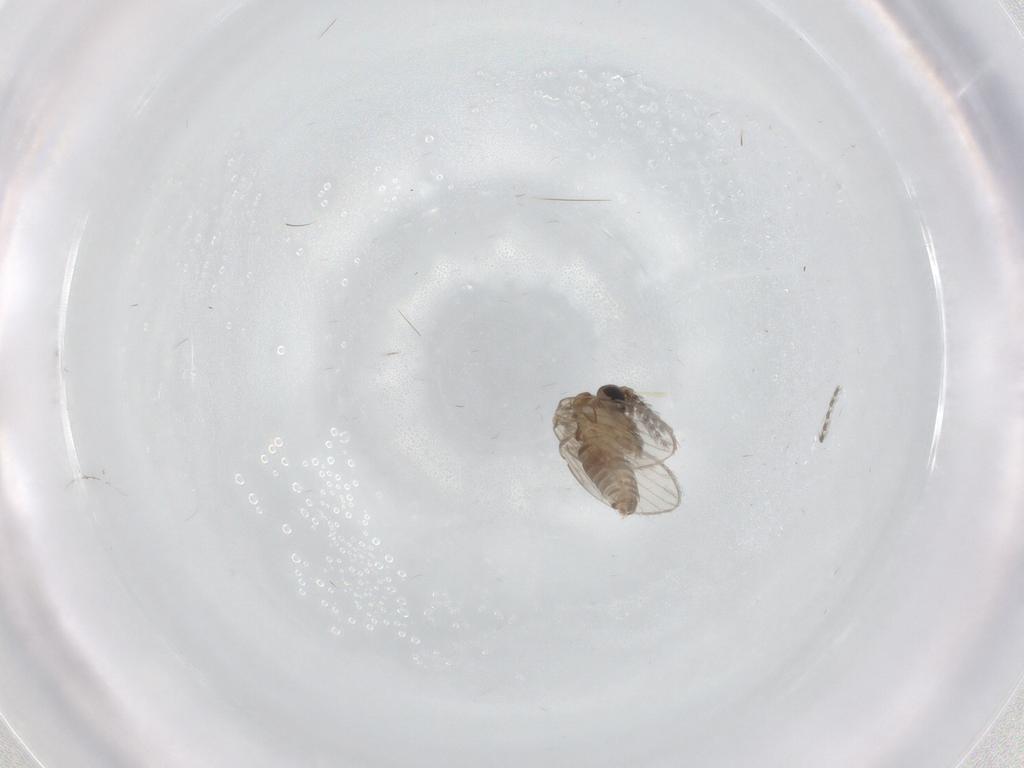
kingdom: Animalia
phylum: Arthropoda
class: Insecta
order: Diptera
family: Ceratopogonidae
